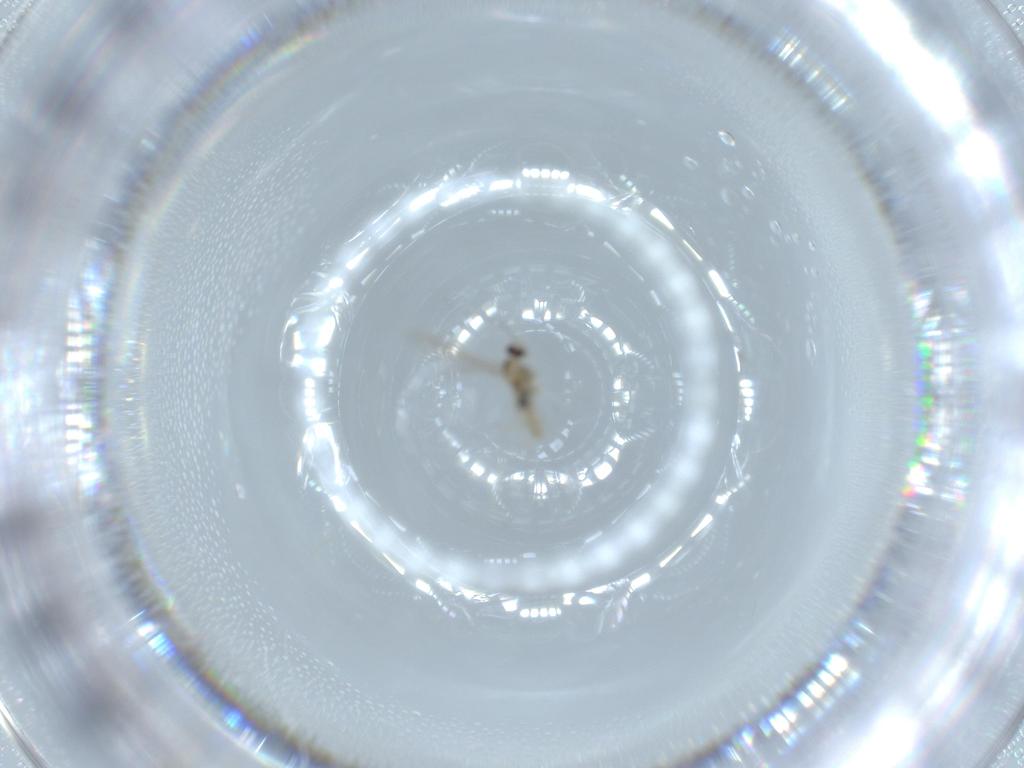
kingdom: Animalia
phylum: Arthropoda
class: Insecta
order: Diptera
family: Cecidomyiidae
